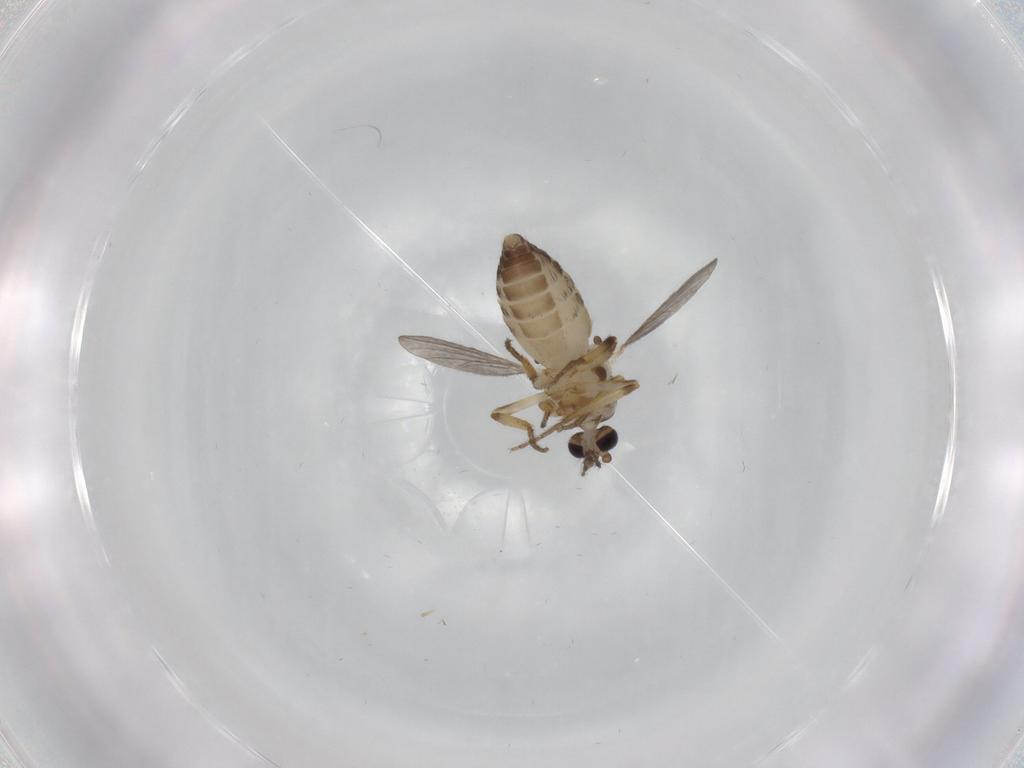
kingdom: Animalia
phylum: Arthropoda
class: Insecta
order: Diptera
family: Ceratopogonidae
